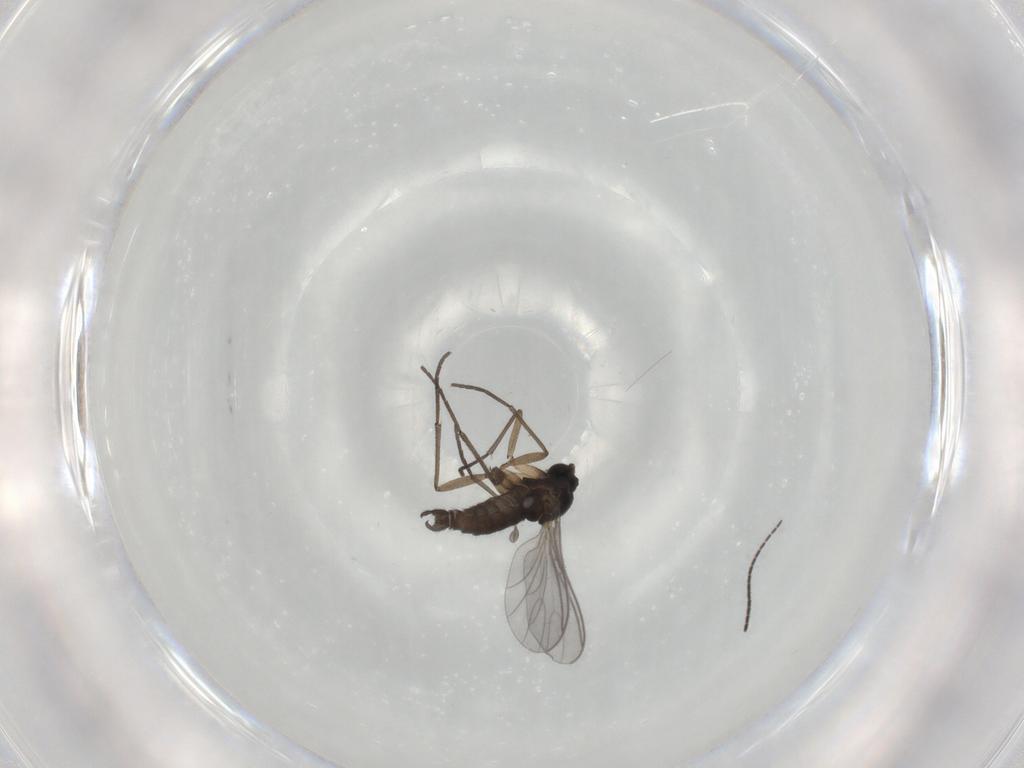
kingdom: Animalia
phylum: Arthropoda
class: Insecta
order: Diptera
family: Sciaridae
